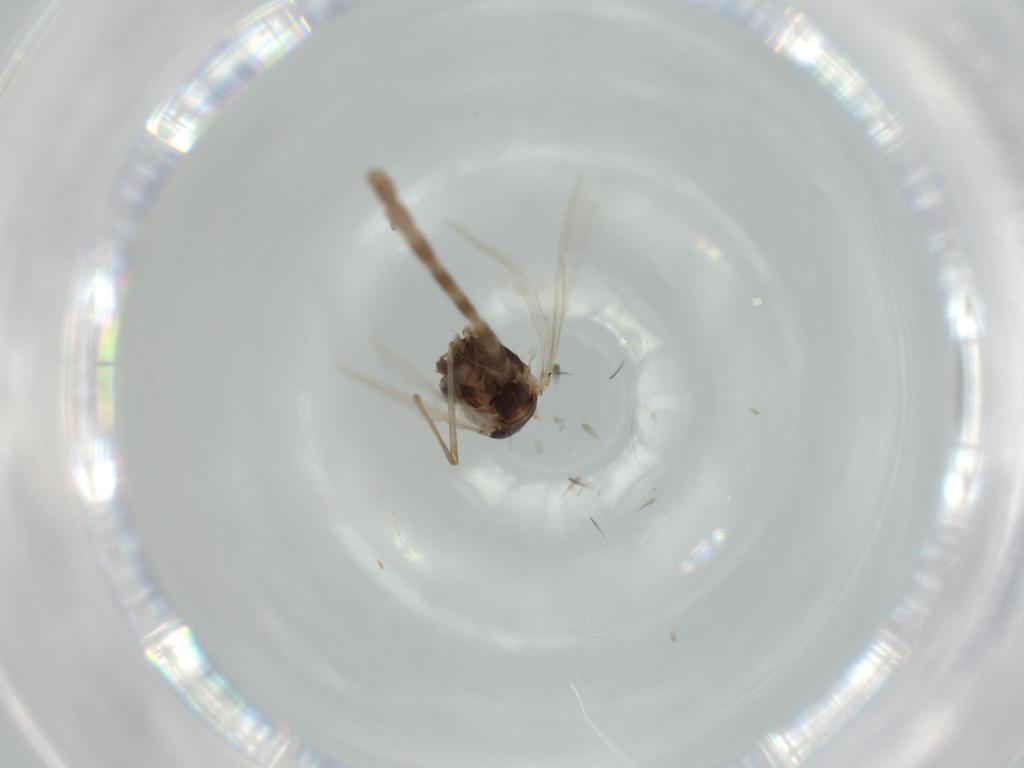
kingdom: Animalia
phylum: Arthropoda
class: Insecta
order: Diptera
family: Chironomidae
